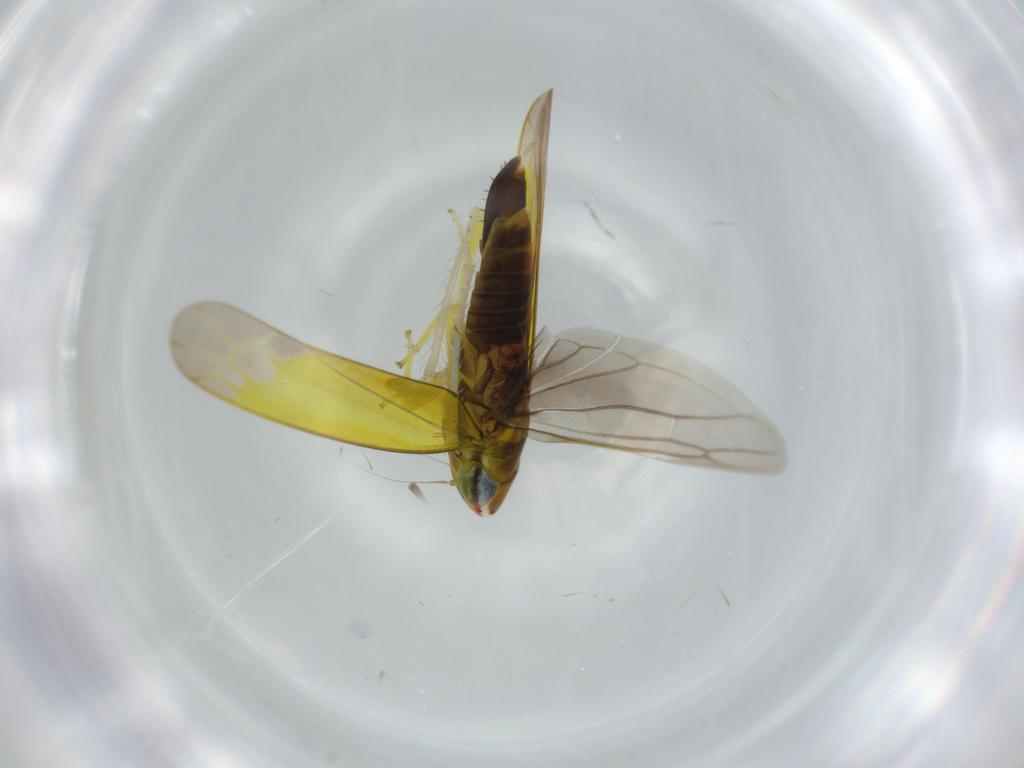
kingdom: Animalia
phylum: Arthropoda
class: Insecta
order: Hemiptera
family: Cicadellidae
